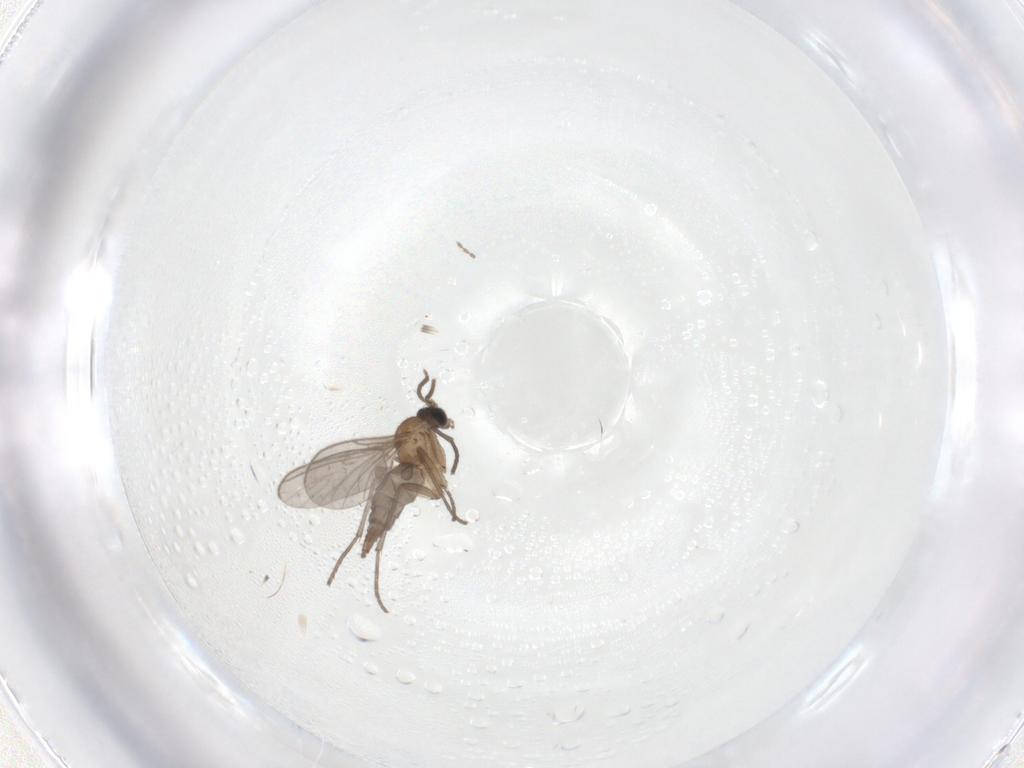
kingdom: Animalia
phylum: Arthropoda
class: Insecta
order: Diptera
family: Sciaridae
